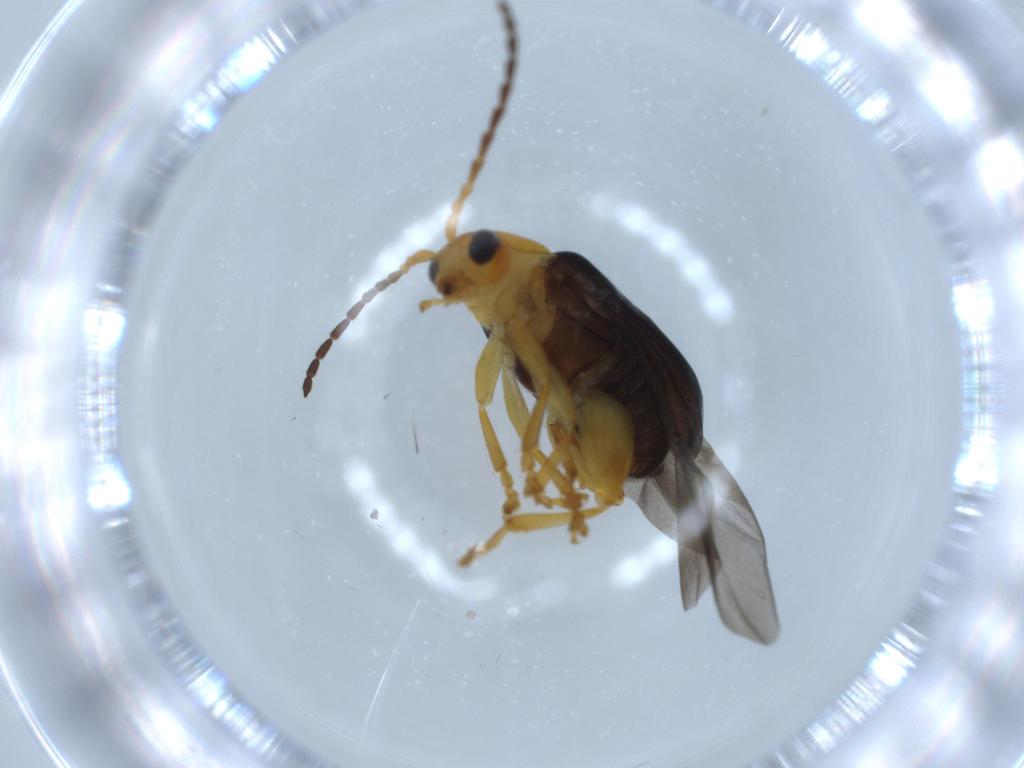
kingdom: Animalia
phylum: Arthropoda
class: Insecta
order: Coleoptera
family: Chrysomelidae
